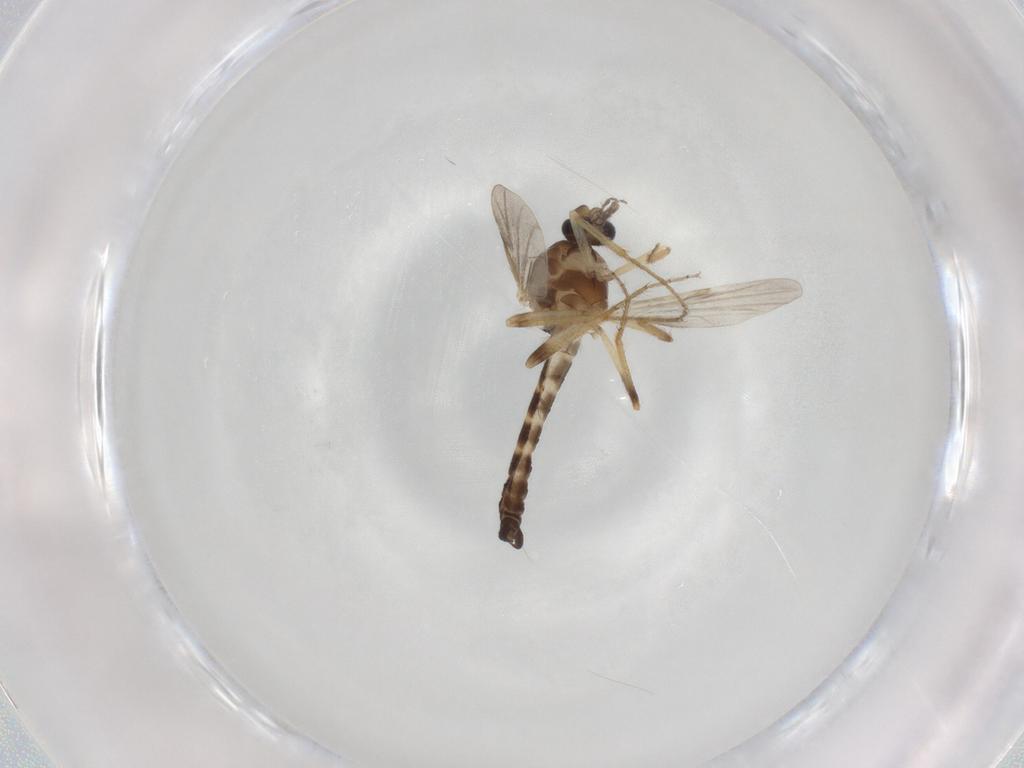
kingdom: Animalia
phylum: Arthropoda
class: Insecta
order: Diptera
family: Ceratopogonidae
